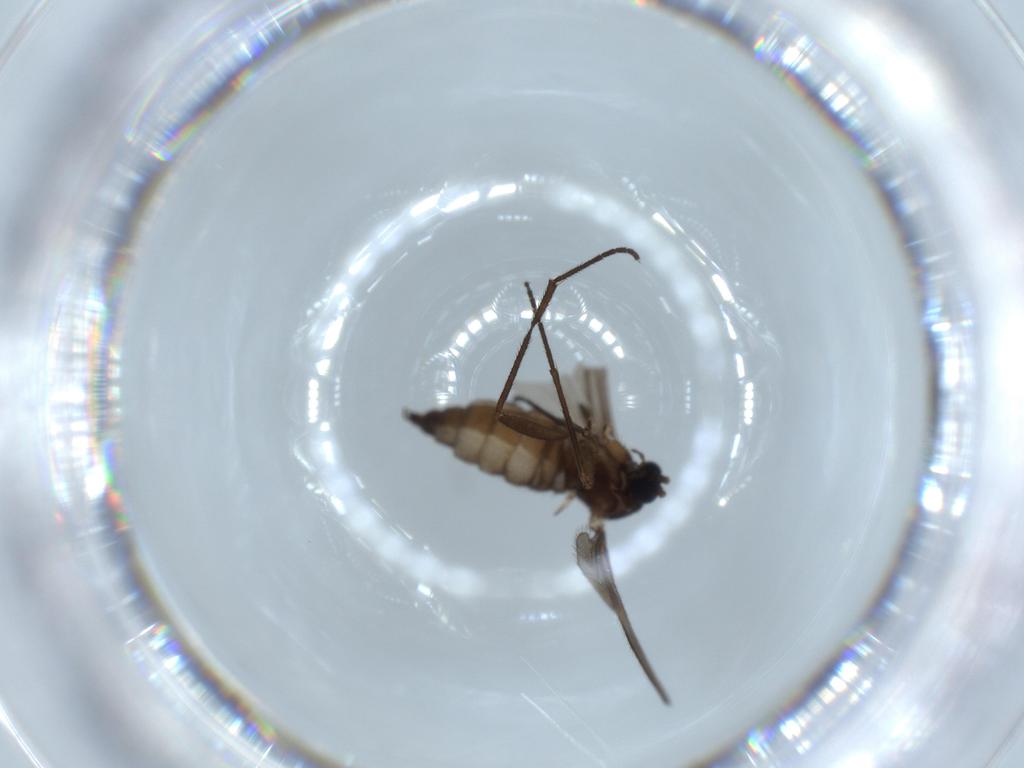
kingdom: Animalia
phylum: Arthropoda
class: Insecta
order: Diptera
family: Sciaridae
